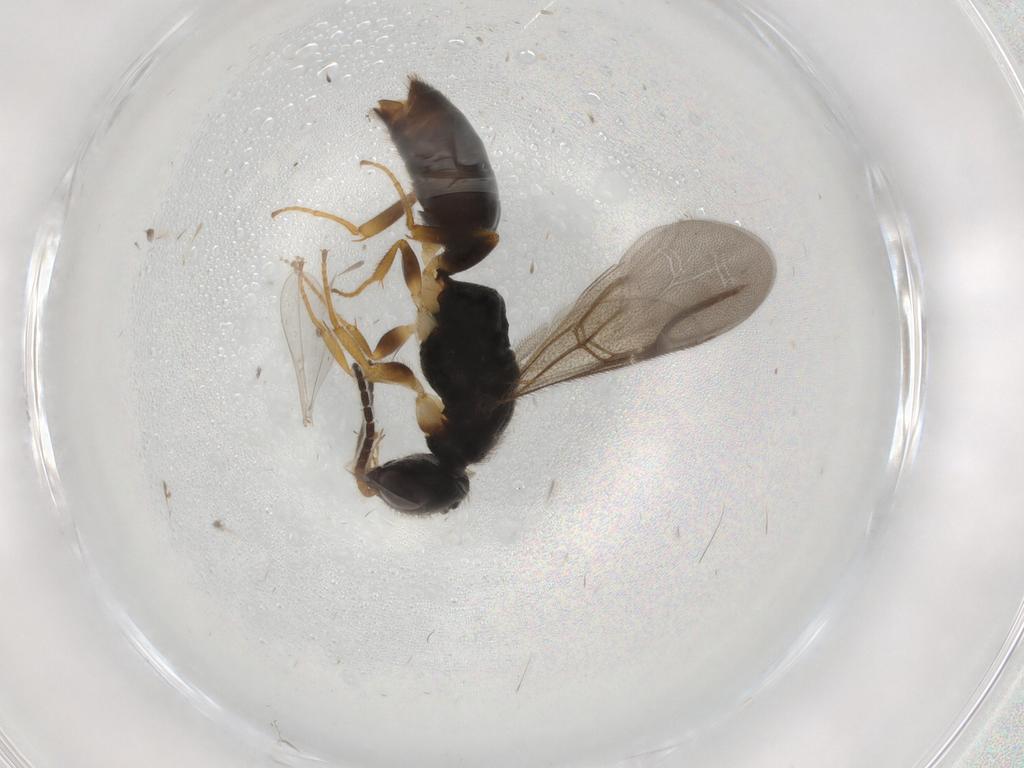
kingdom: Animalia
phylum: Arthropoda
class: Insecta
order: Hymenoptera
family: Bethylidae
